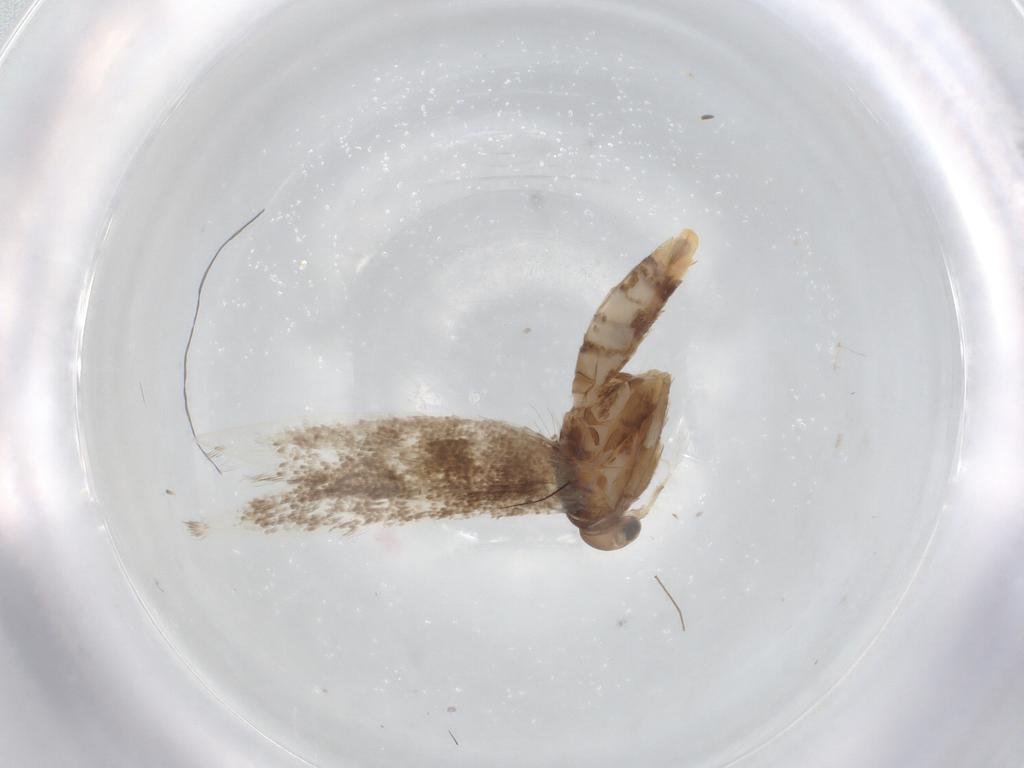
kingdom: Animalia
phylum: Arthropoda
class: Insecta
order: Lepidoptera
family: Elachistidae
